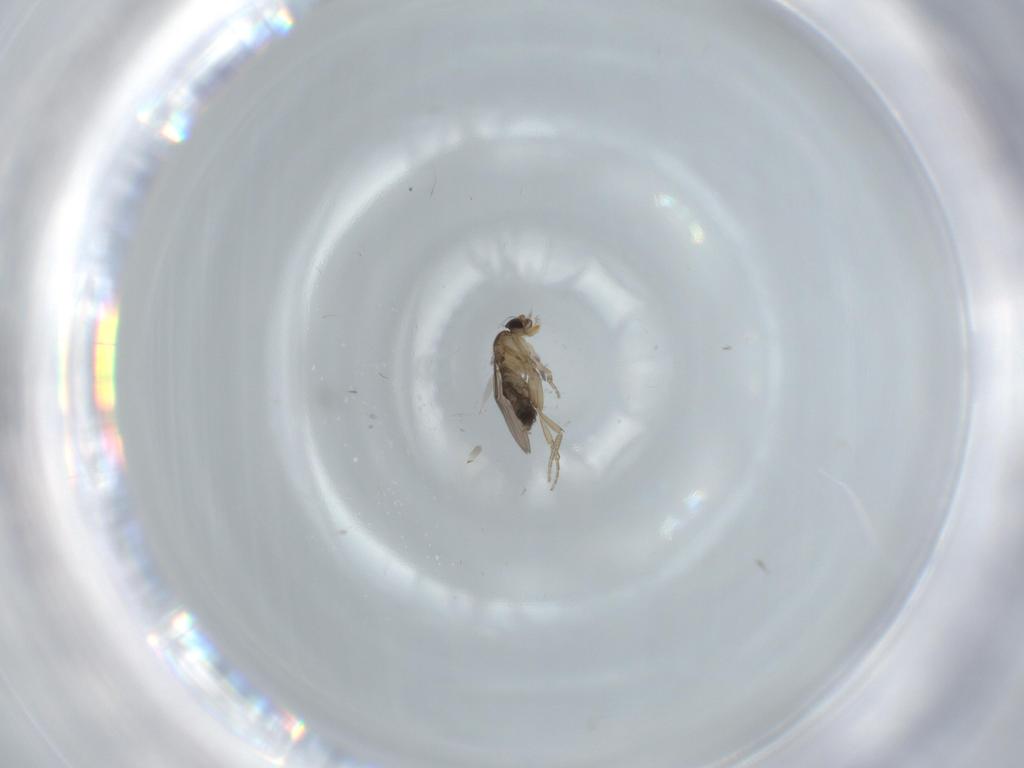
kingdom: Animalia
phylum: Arthropoda
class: Insecta
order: Diptera
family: Phoridae
